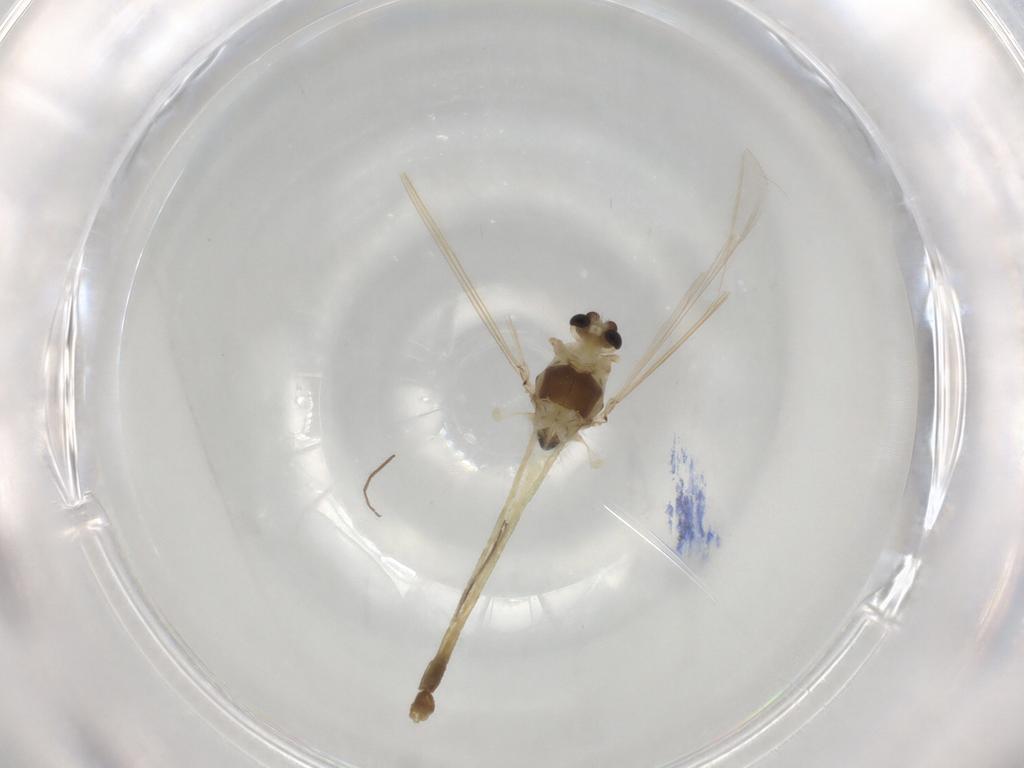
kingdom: Animalia
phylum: Arthropoda
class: Insecta
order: Diptera
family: Chironomidae
